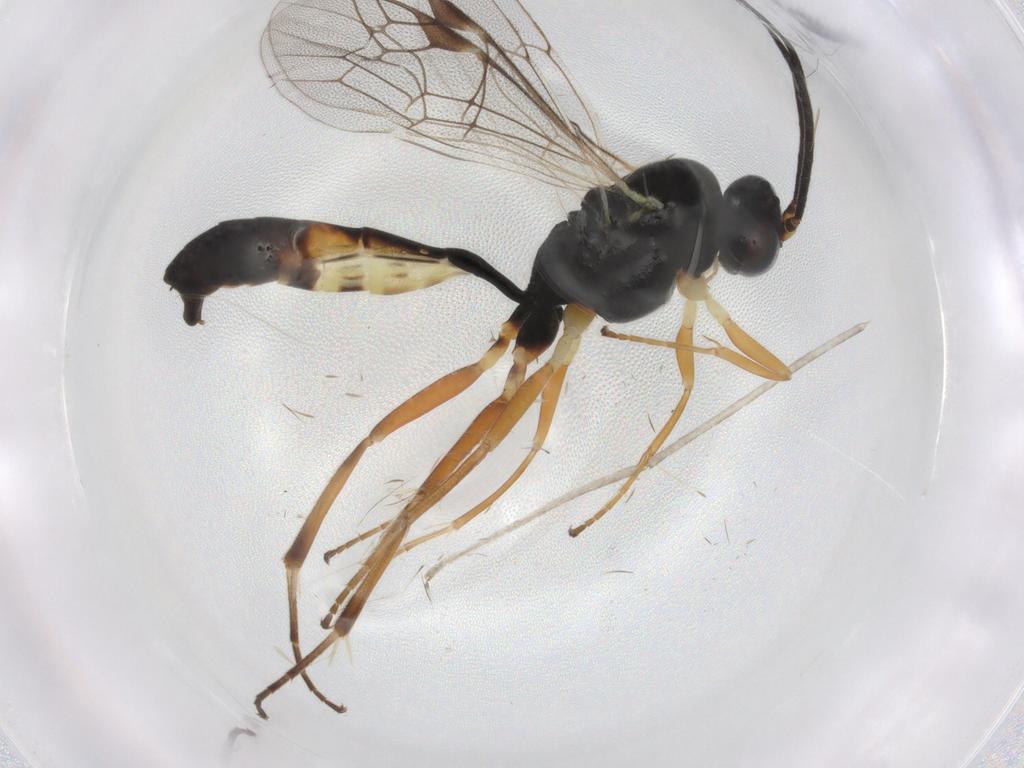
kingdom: Animalia
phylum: Arthropoda
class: Insecta
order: Hymenoptera
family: Ichneumonidae
